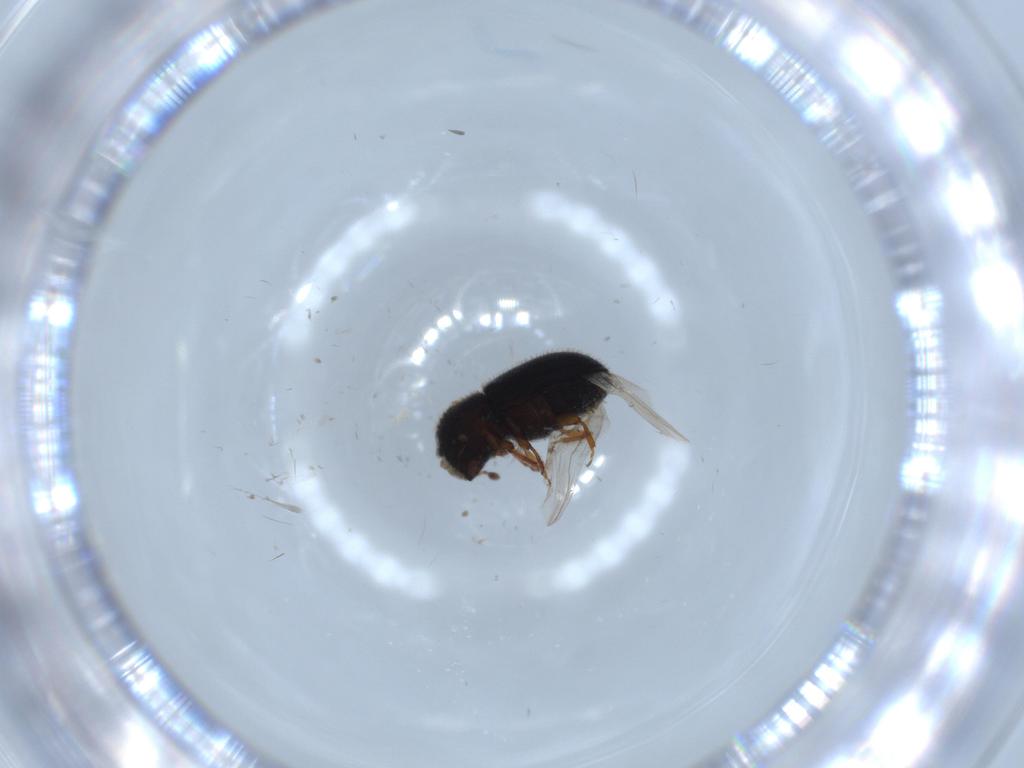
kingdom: Animalia
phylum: Arthropoda
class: Insecta
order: Coleoptera
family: Curculionidae
